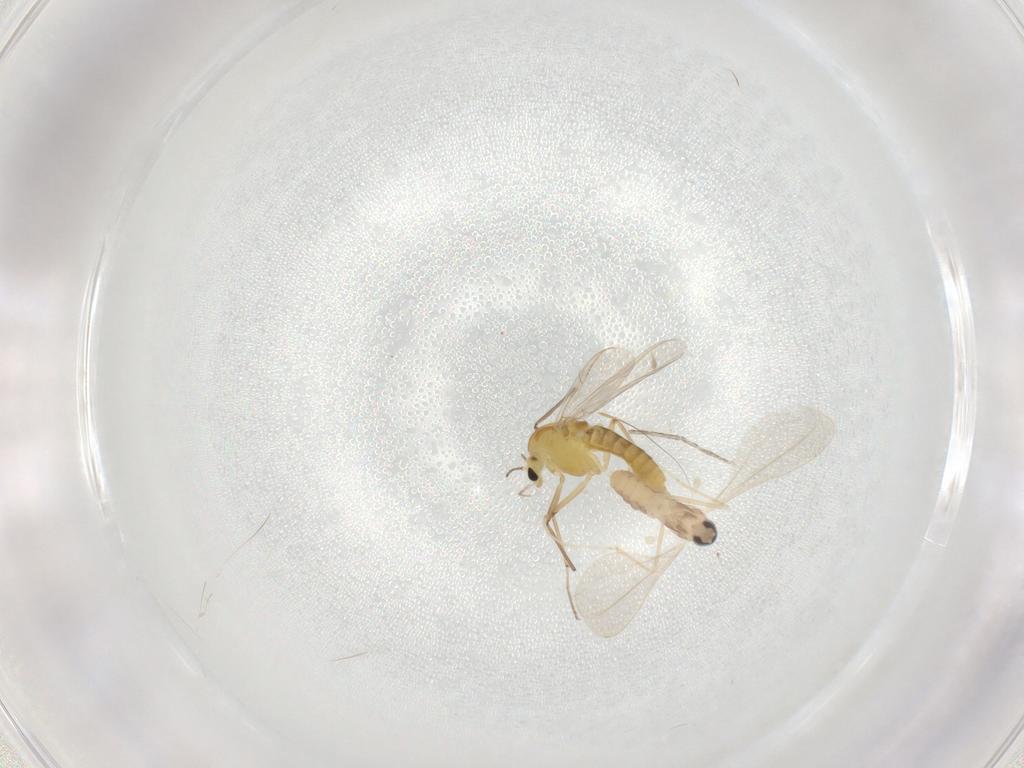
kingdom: Animalia
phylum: Arthropoda
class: Insecta
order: Diptera
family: Cecidomyiidae
